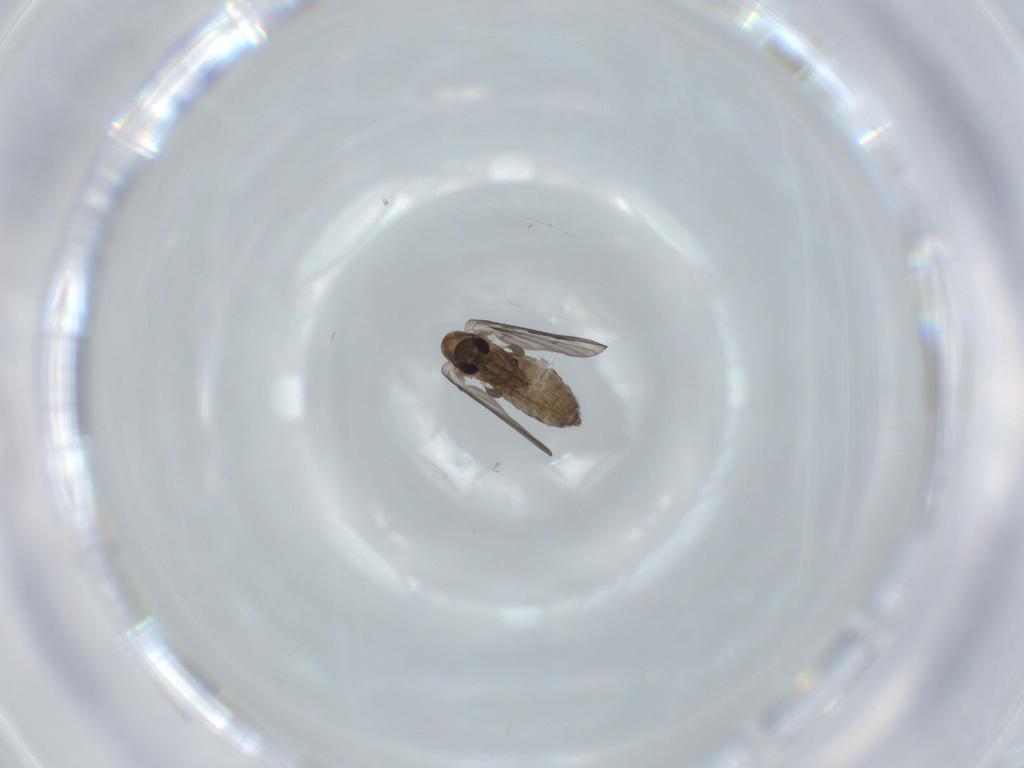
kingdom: Animalia
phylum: Arthropoda
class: Insecta
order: Diptera
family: Psychodidae
